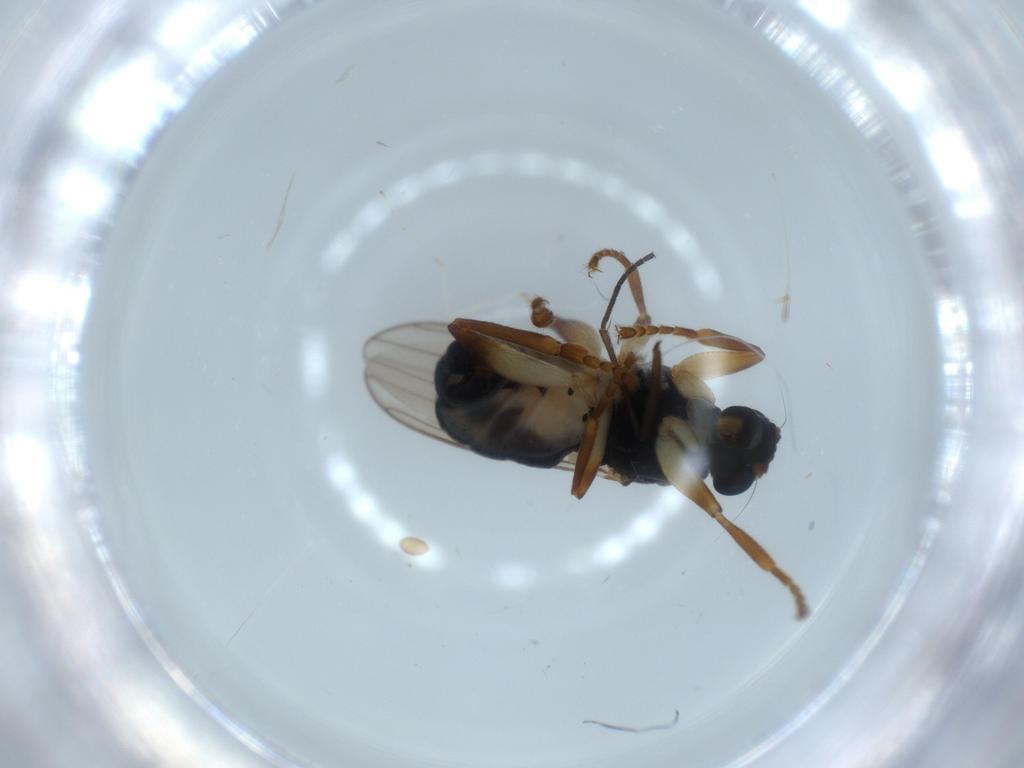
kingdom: Animalia
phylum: Arthropoda
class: Insecta
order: Diptera
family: Sphaeroceridae
